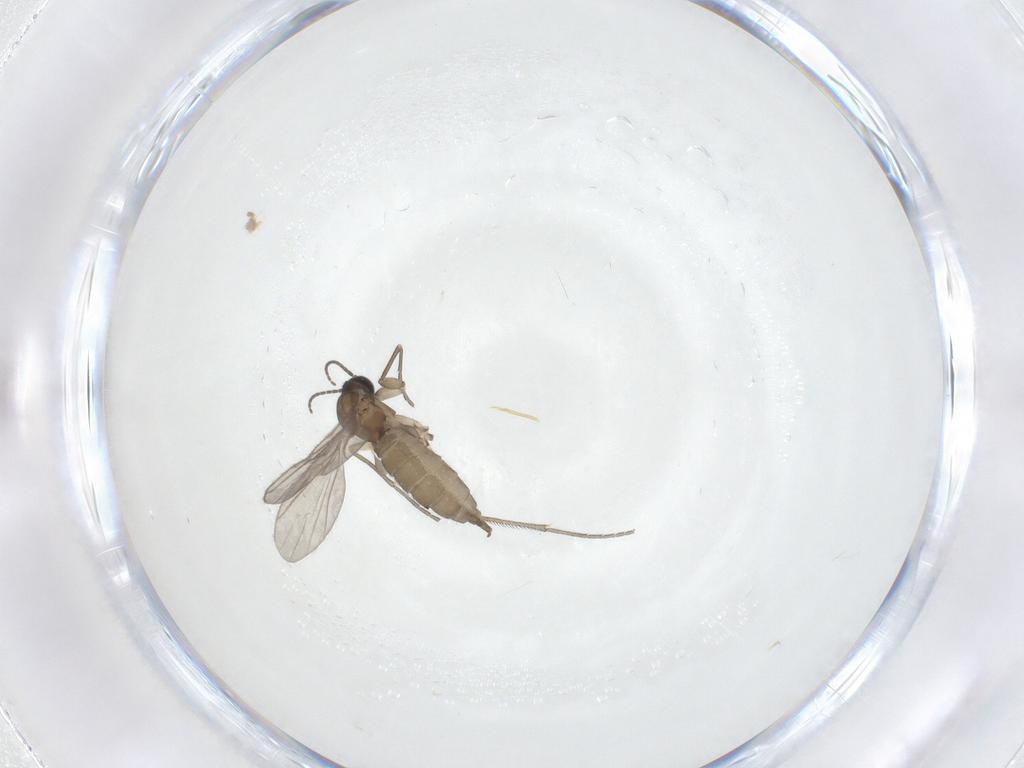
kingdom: Animalia
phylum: Arthropoda
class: Insecta
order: Diptera
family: Sciaridae
